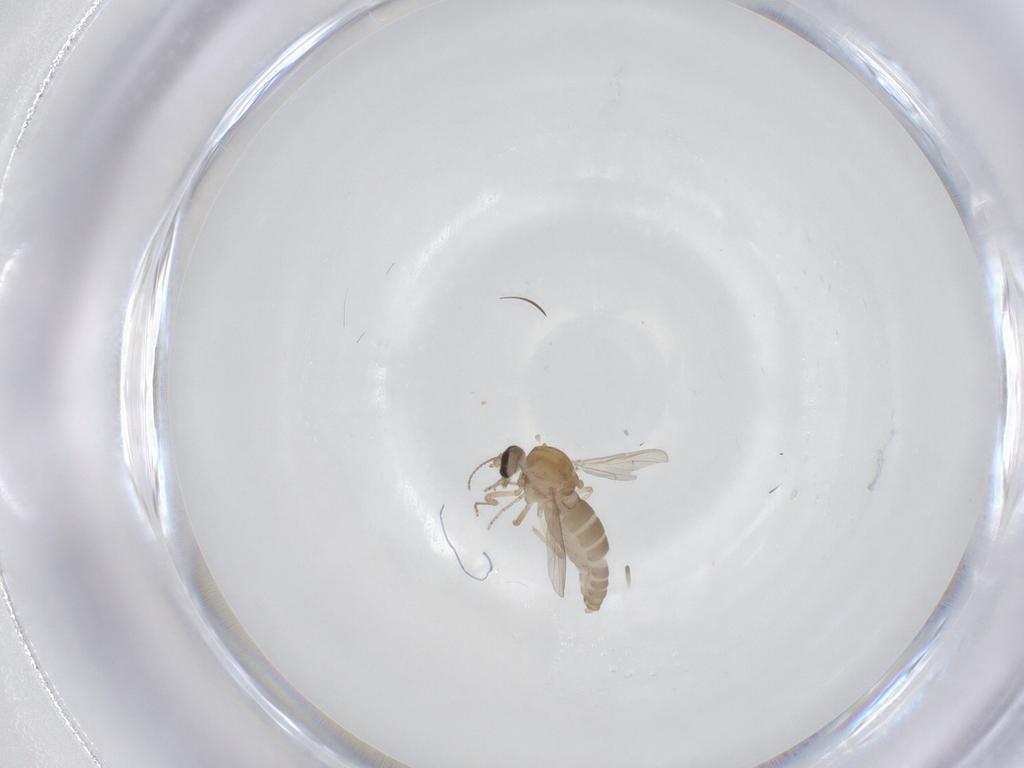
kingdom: Animalia
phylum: Arthropoda
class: Insecta
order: Diptera
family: Ceratopogonidae
